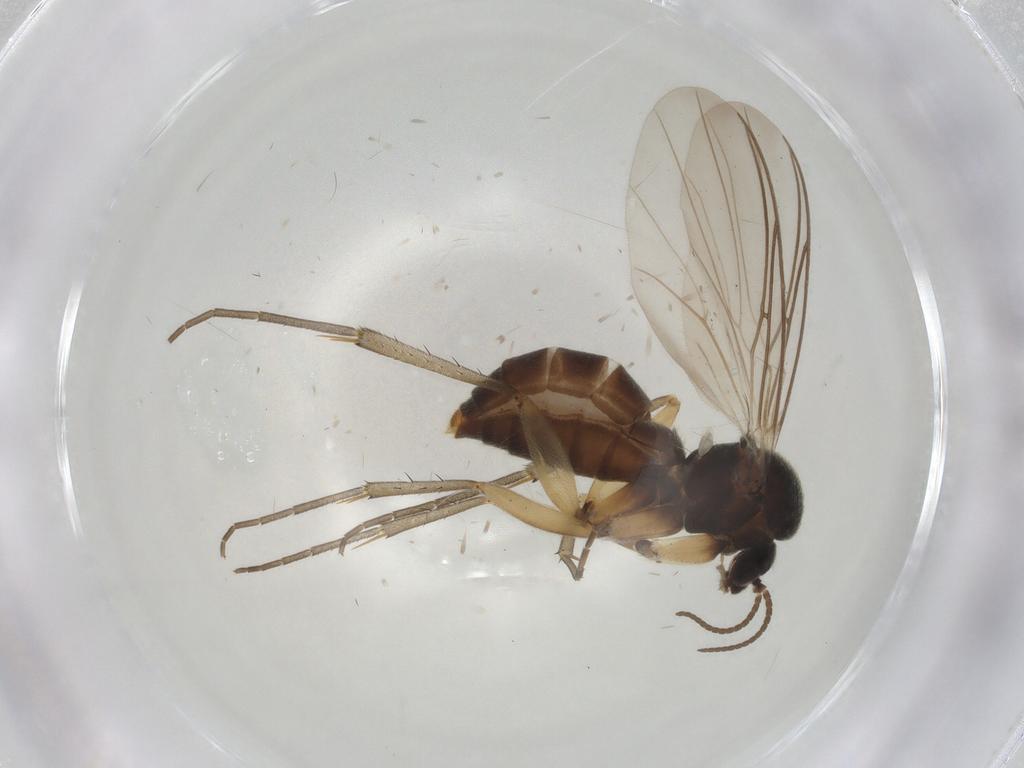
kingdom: Animalia
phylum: Arthropoda
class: Insecta
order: Diptera
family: Mycetophilidae
